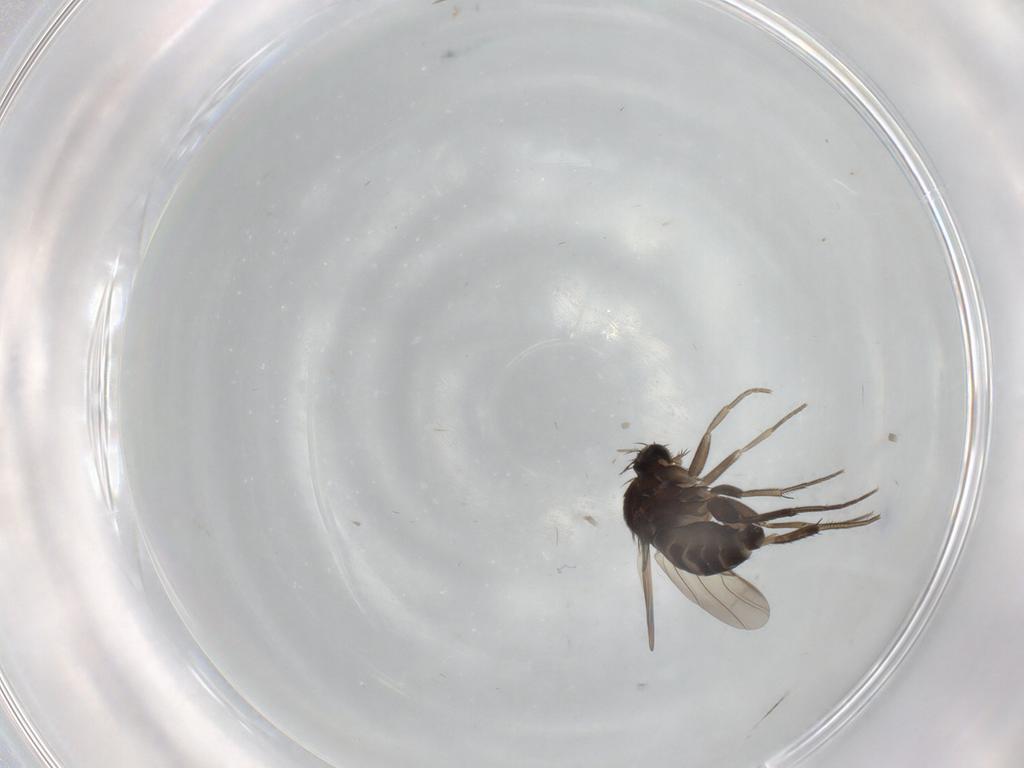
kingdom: Animalia
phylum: Arthropoda
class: Insecta
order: Diptera
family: Phoridae
